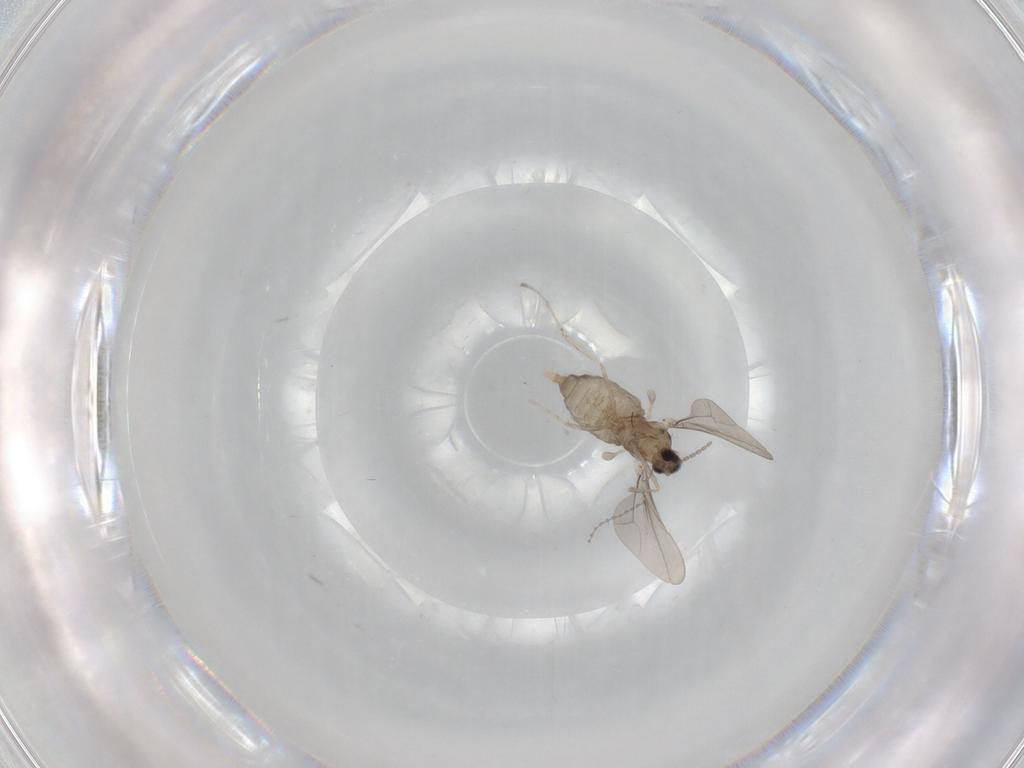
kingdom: Animalia
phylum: Arthropoda
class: Insecta
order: Diptera
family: Cecidomyiidae
